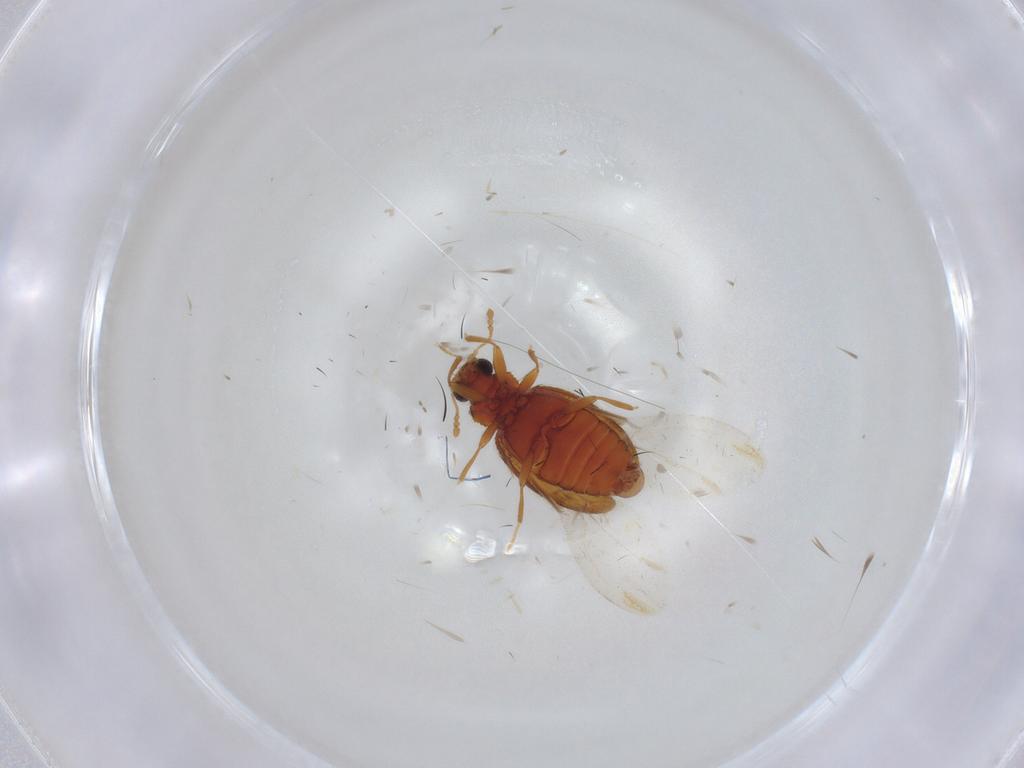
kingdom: Animalia
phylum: Arthropoda
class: Insecta
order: Coleoptera
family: Latridiidae
